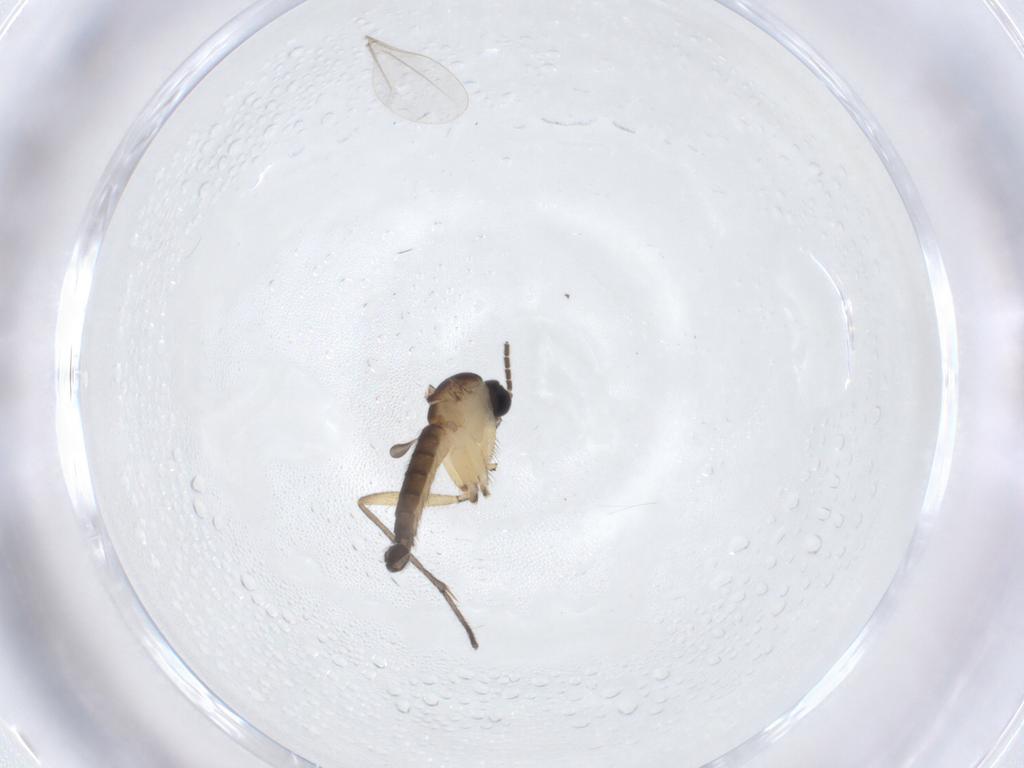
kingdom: Animalia
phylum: Arthropoda
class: Insecta
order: Diptera
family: Sciaridae
